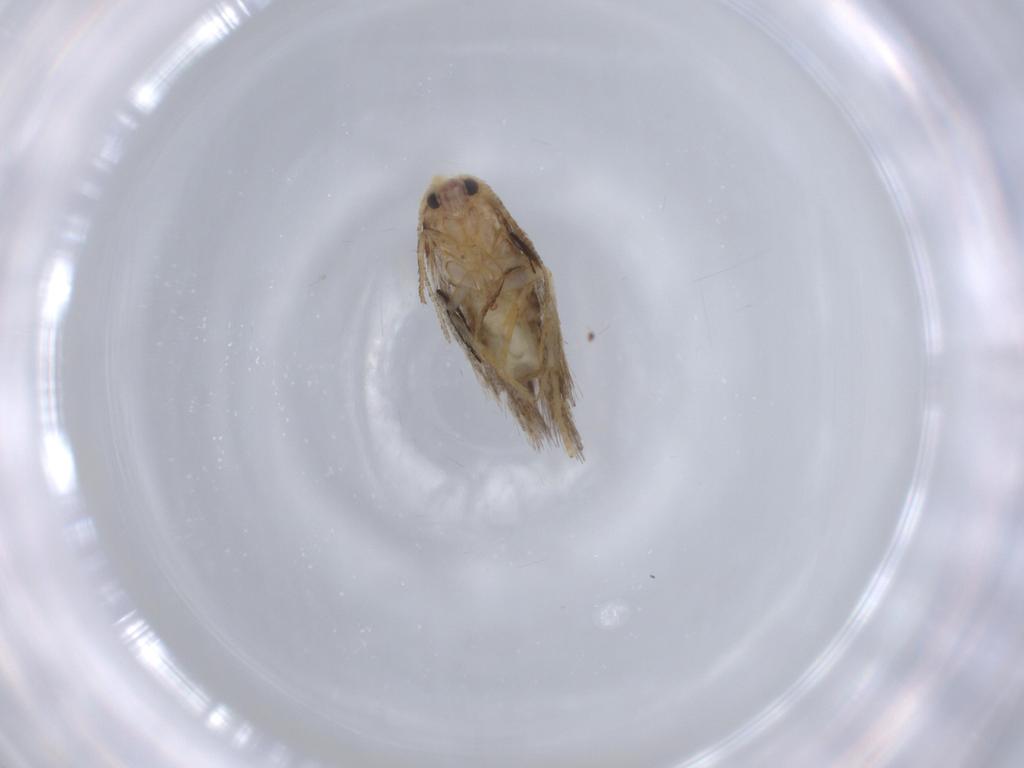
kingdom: Animalia
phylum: Arthropoda
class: Insecta
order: Lepidoptera
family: Nepticulidae
